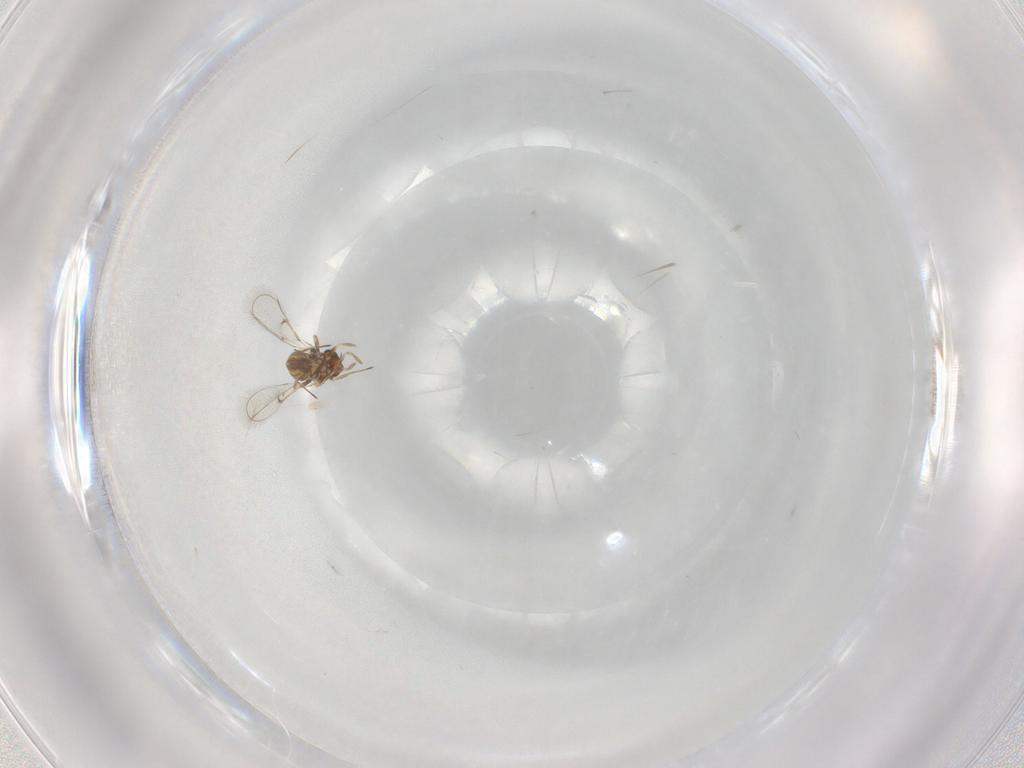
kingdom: Animalia
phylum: Arthropoda
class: Insecta
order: Hymenoptera
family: Trichogrammatidae
